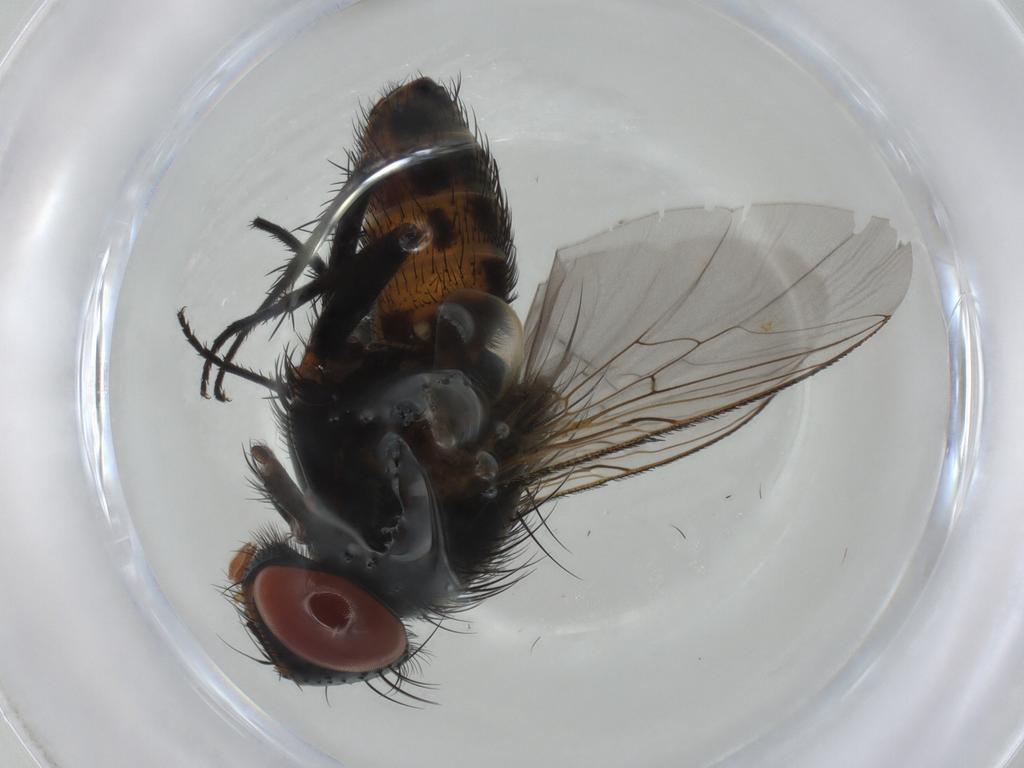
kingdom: Animalia
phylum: Arthropoda
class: Insecta
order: Diptera
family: Sarcophagidae
